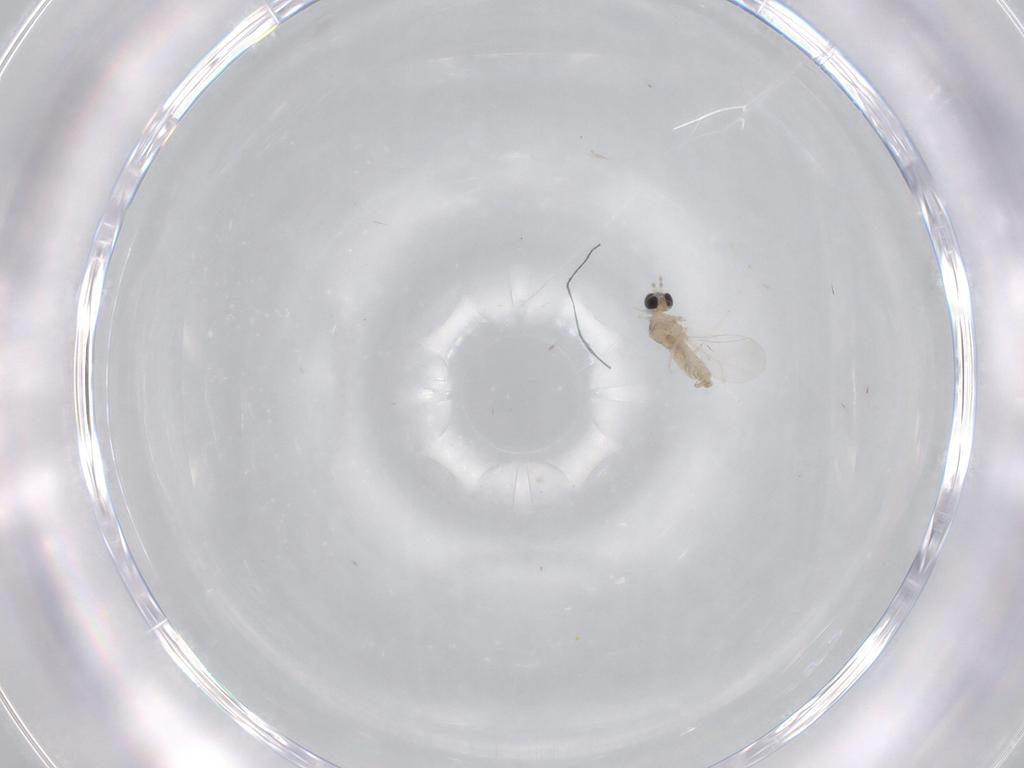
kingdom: Animalia
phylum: Arthropoda
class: Insecta
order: Diptera
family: Cecidomyiidae
